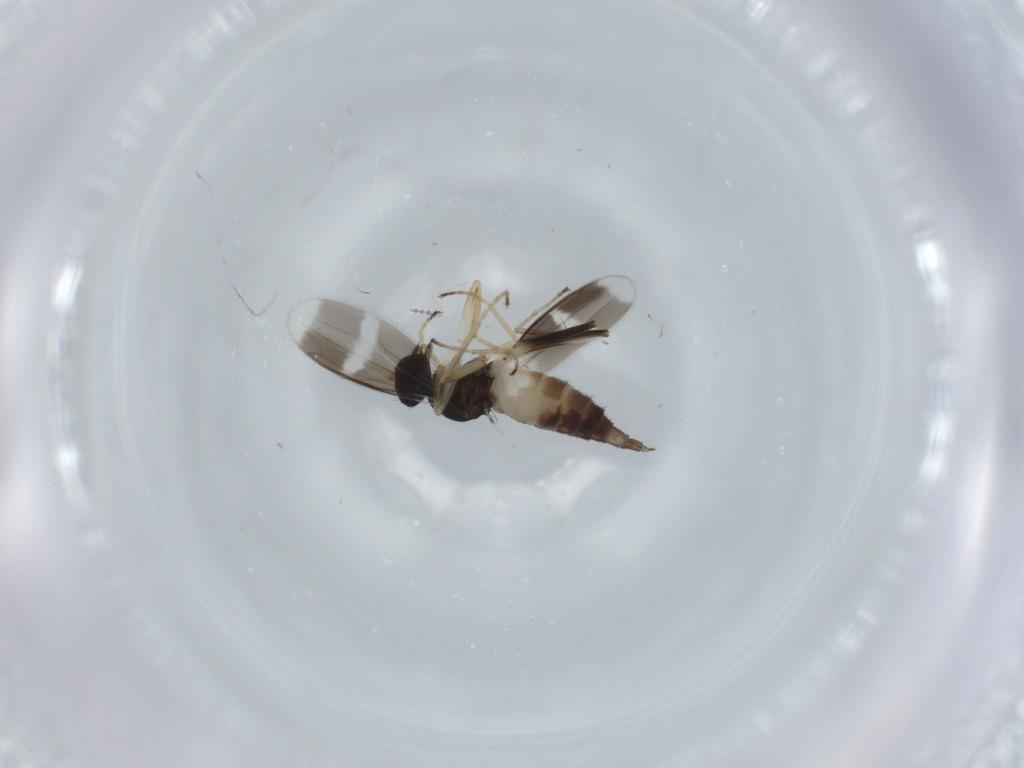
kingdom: Animalia
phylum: Arthropoda
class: Insecta
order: Diptera
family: Hybotidae
